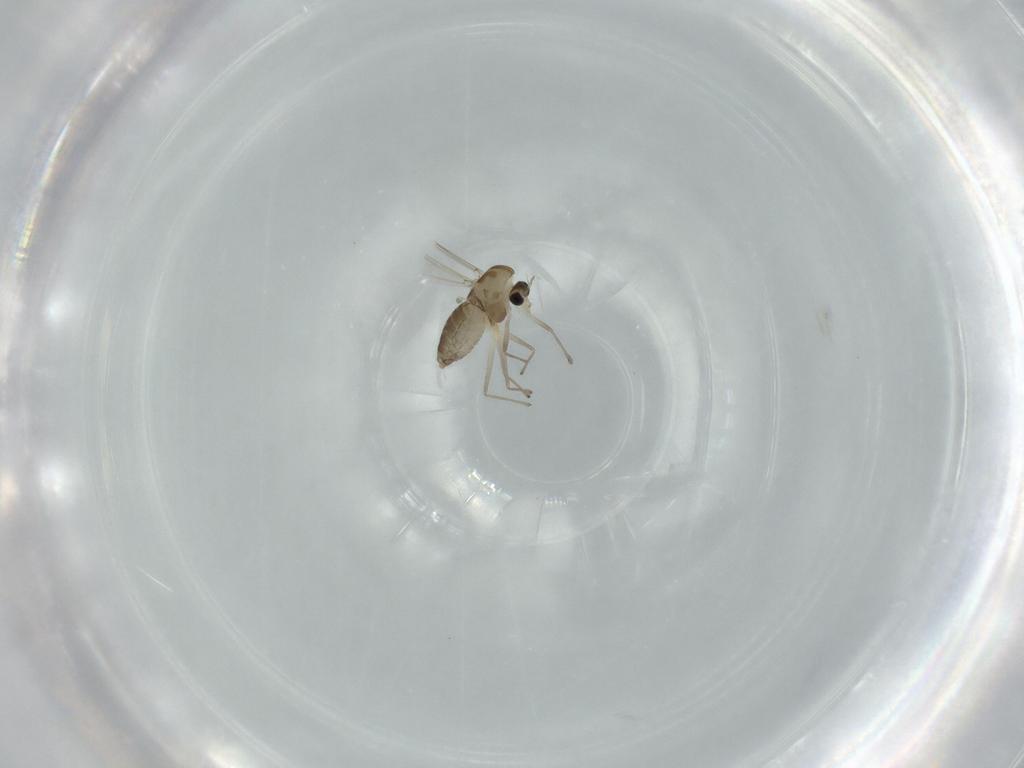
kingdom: Animalia
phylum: Arthropoda
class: Insecta
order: Diptera
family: Chironomidae
